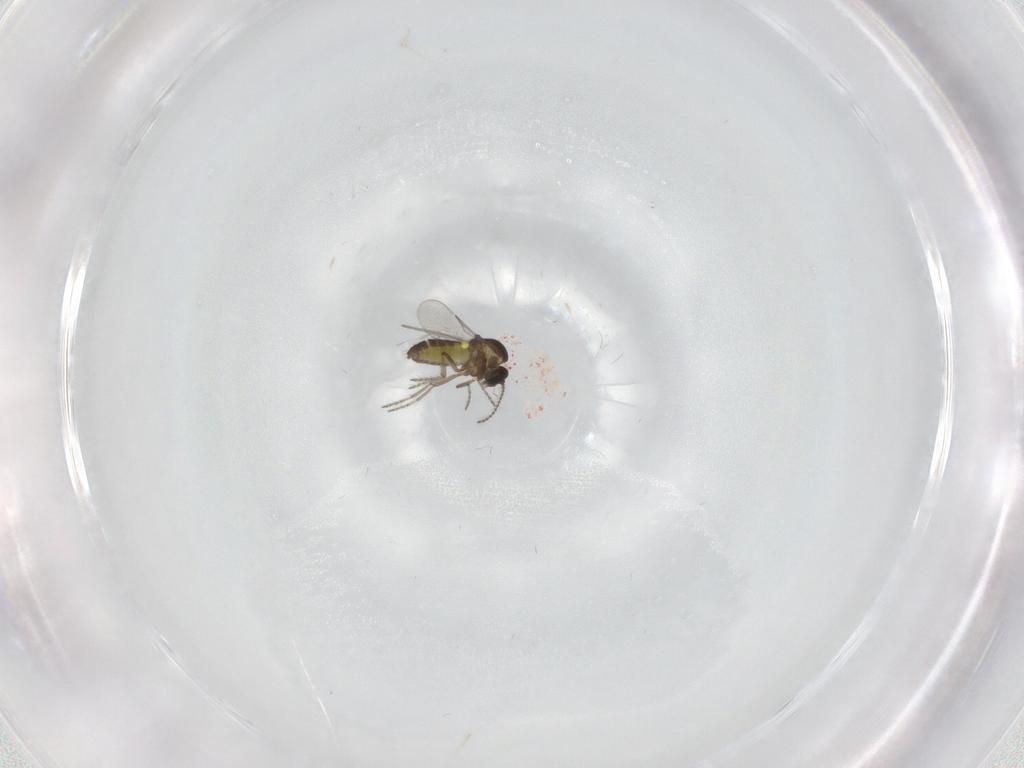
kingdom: Animalia
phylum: Arthropoda
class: Insecta
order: Diptera
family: Ceratopogonidae
